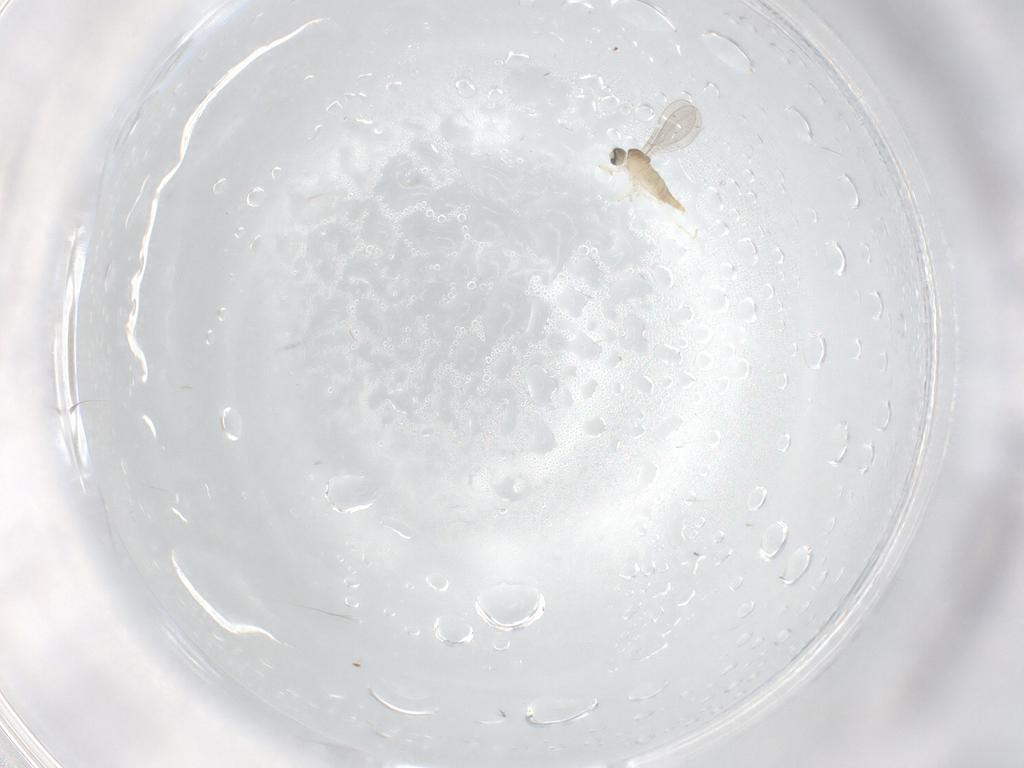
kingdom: Animalia
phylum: Arthropoda
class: Insecta
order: Diptera
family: Cecidomyiidae
